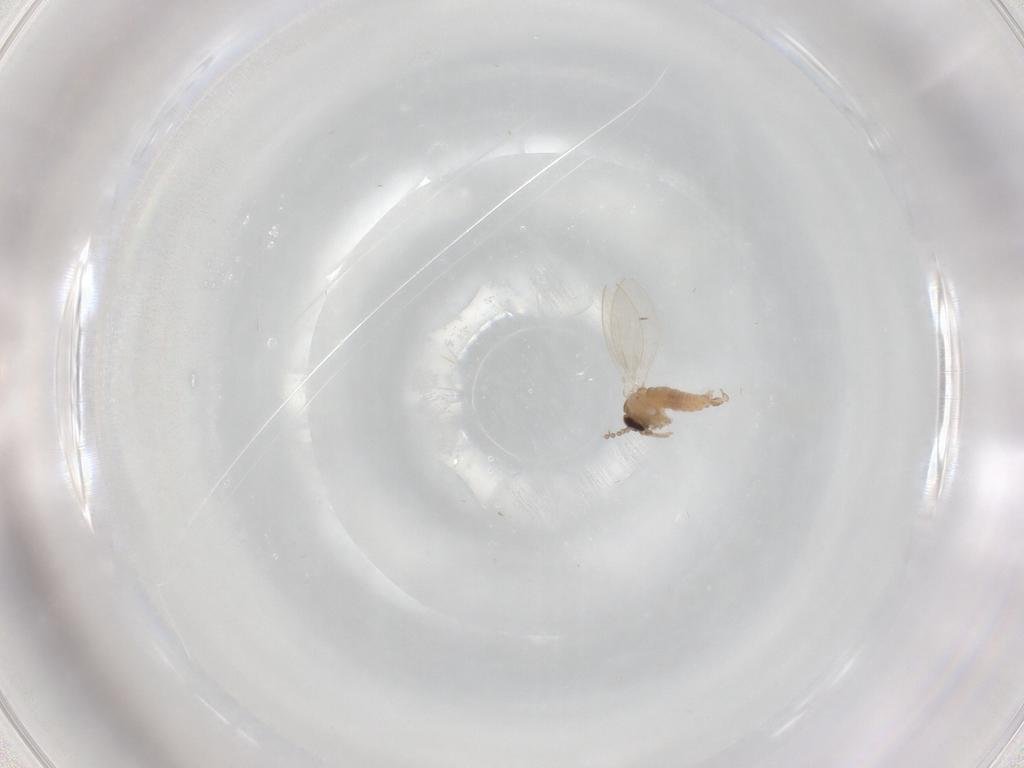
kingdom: Animalia
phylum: Arthropoda
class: Insecta
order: Diptera
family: Psychodidae
